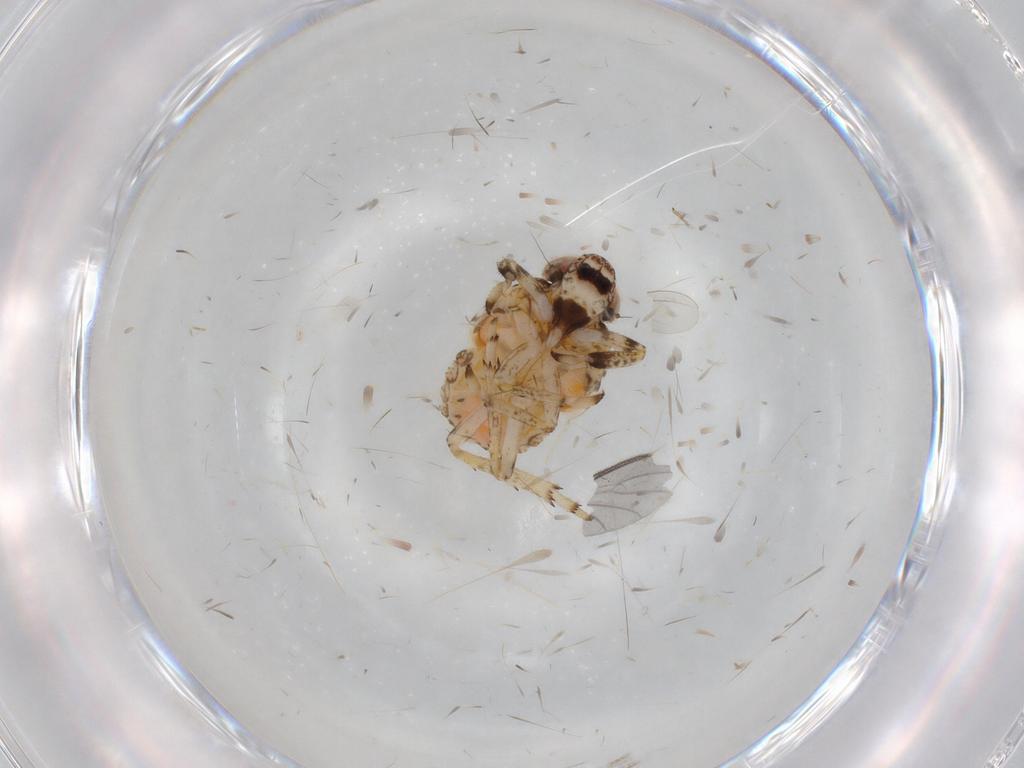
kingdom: Animalia
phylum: Arthropoda
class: Insecta
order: Hemiptera
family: Issidae
